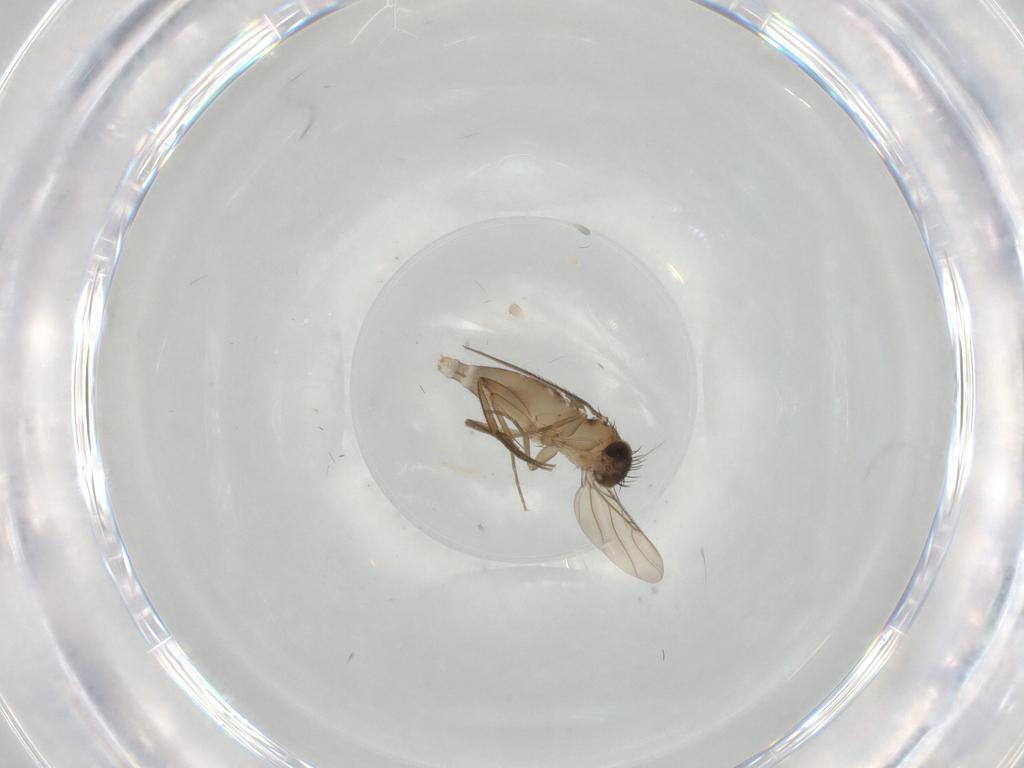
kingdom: Animalia
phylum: Arthropoda
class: Insecta
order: Diptera
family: Phoridae
